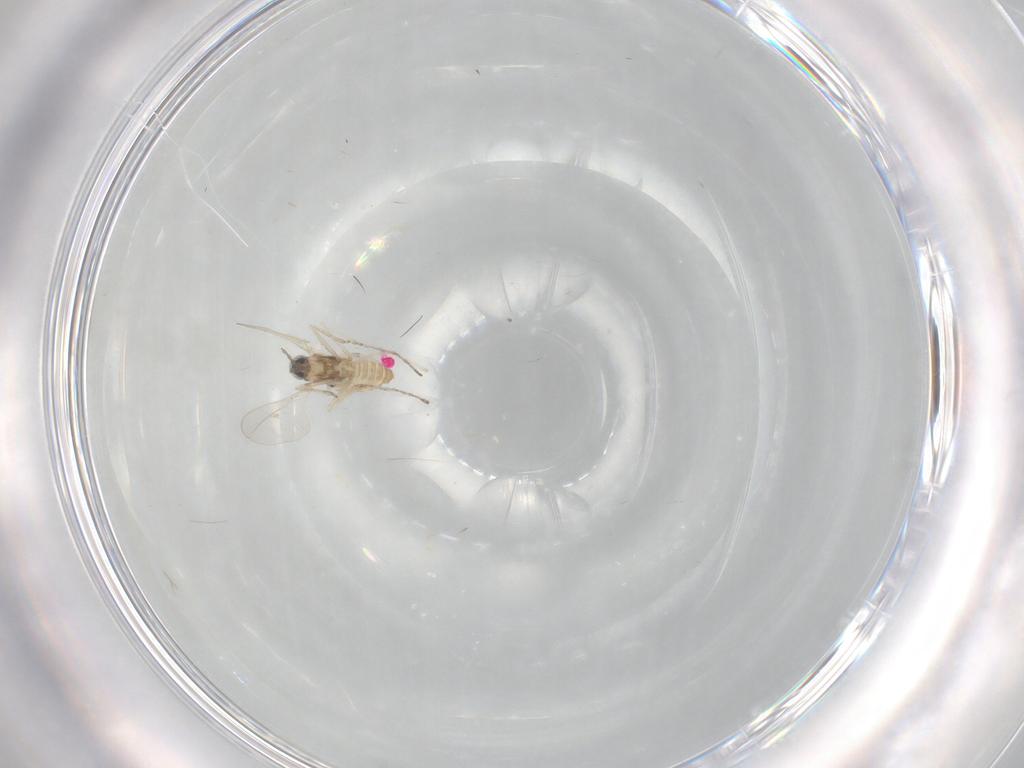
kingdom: Animalia
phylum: Arthropoda
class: Insecta
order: Diptera
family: Cecidomyiidae
